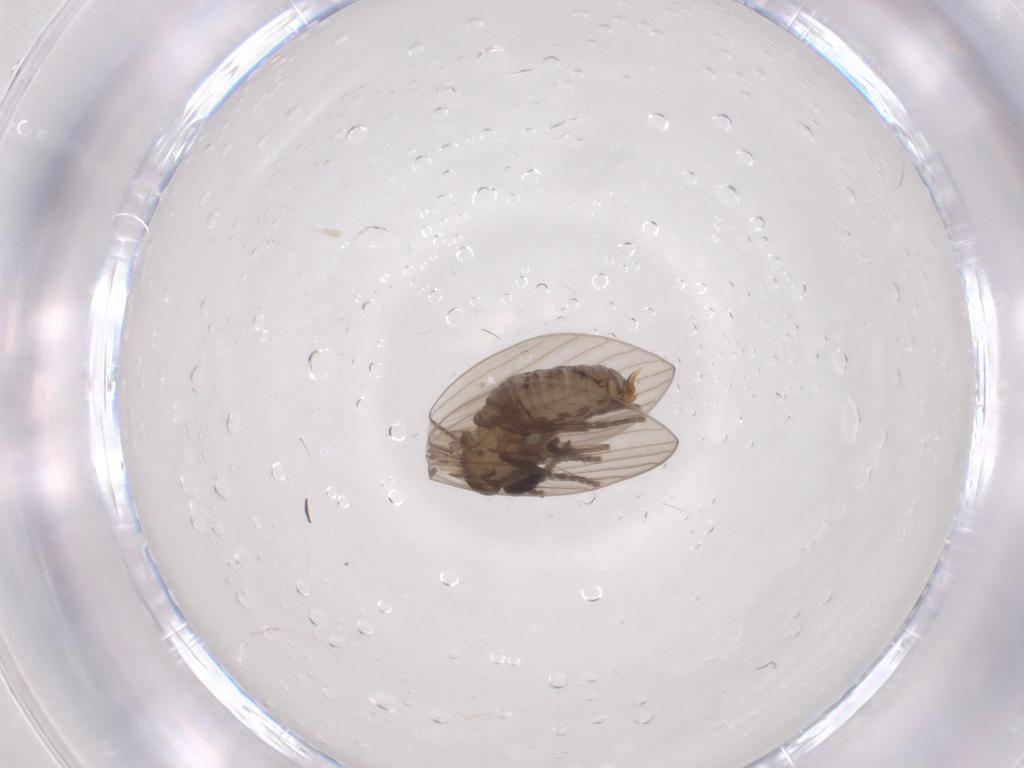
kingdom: Animalia
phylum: Arthropoda
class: Insecta
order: Diptera
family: Psychodidae
